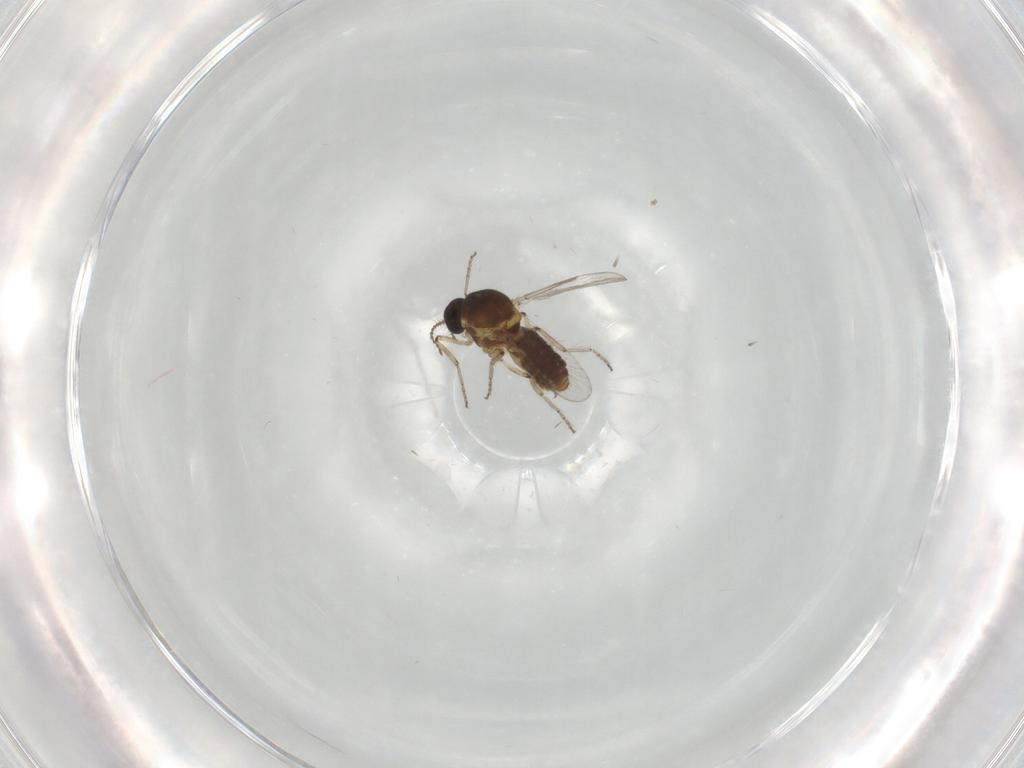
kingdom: Animalia
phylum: Arthropoda
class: Insecta
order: Diptera
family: Ceratopogonidae
